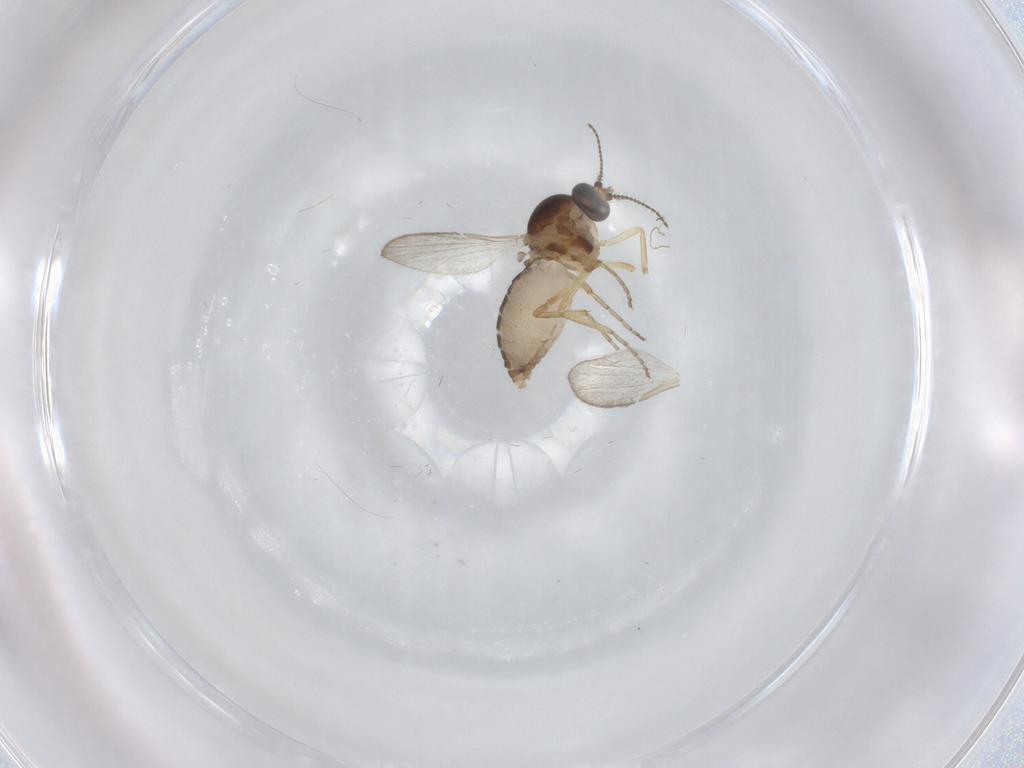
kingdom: Animalia
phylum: Arthropoda
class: Insecta
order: Diptera
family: Ceratopogonidae
